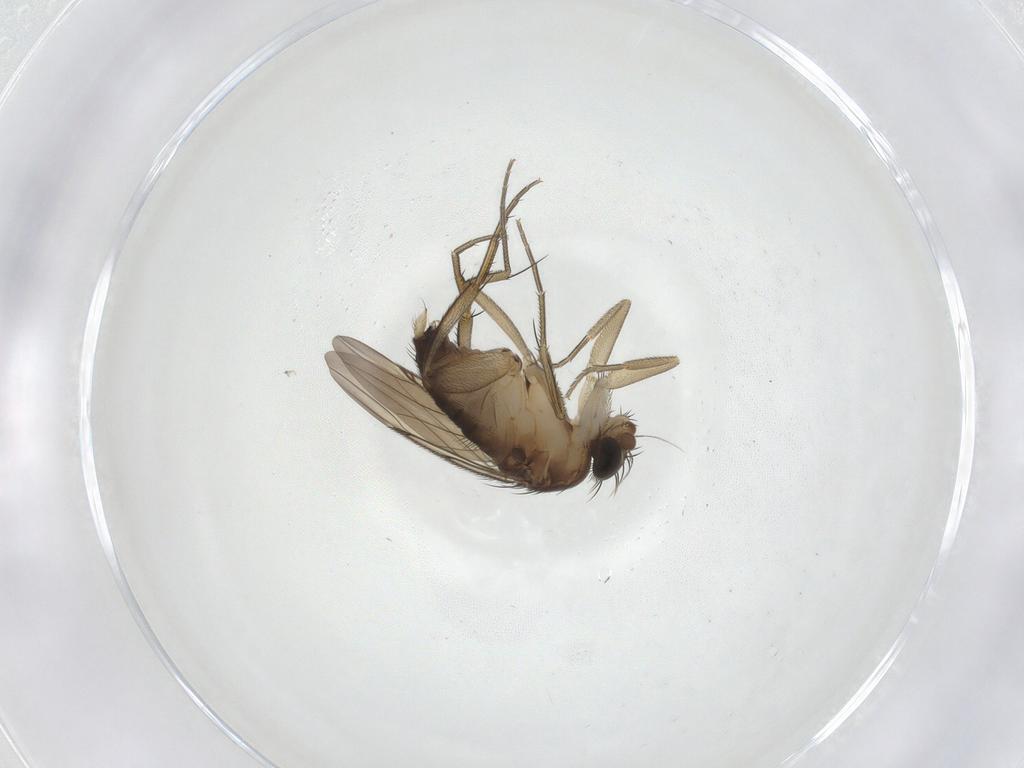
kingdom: Animalia
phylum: Arthropoda
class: Insecta
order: Diptera
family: Phoridae
